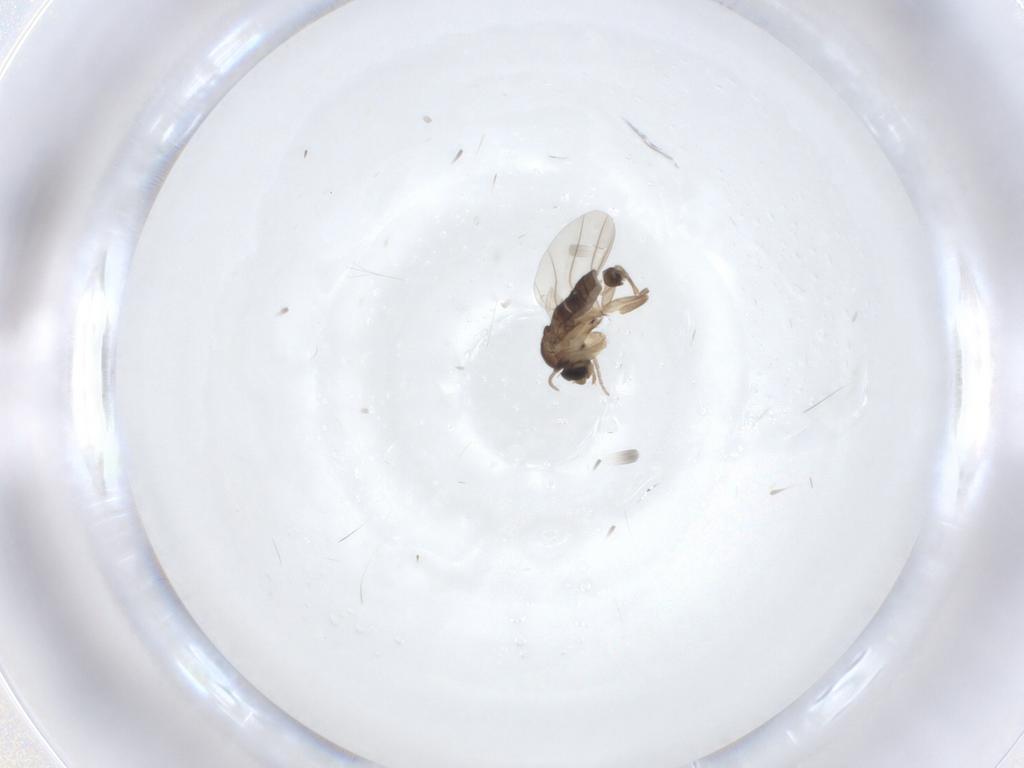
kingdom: Animalia
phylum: Arthropoda
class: Insecta
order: Diptera
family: Phoridae
